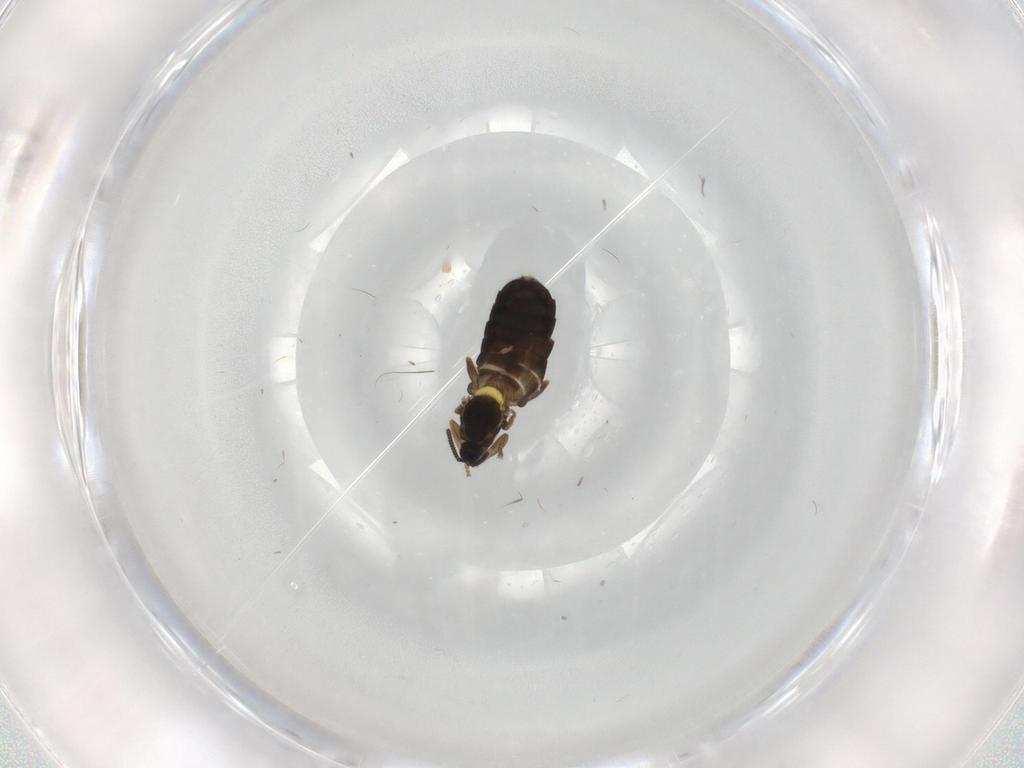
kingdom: Animalia
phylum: Arthropoda
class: Insecta
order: Diptera
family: Scatopsidae
